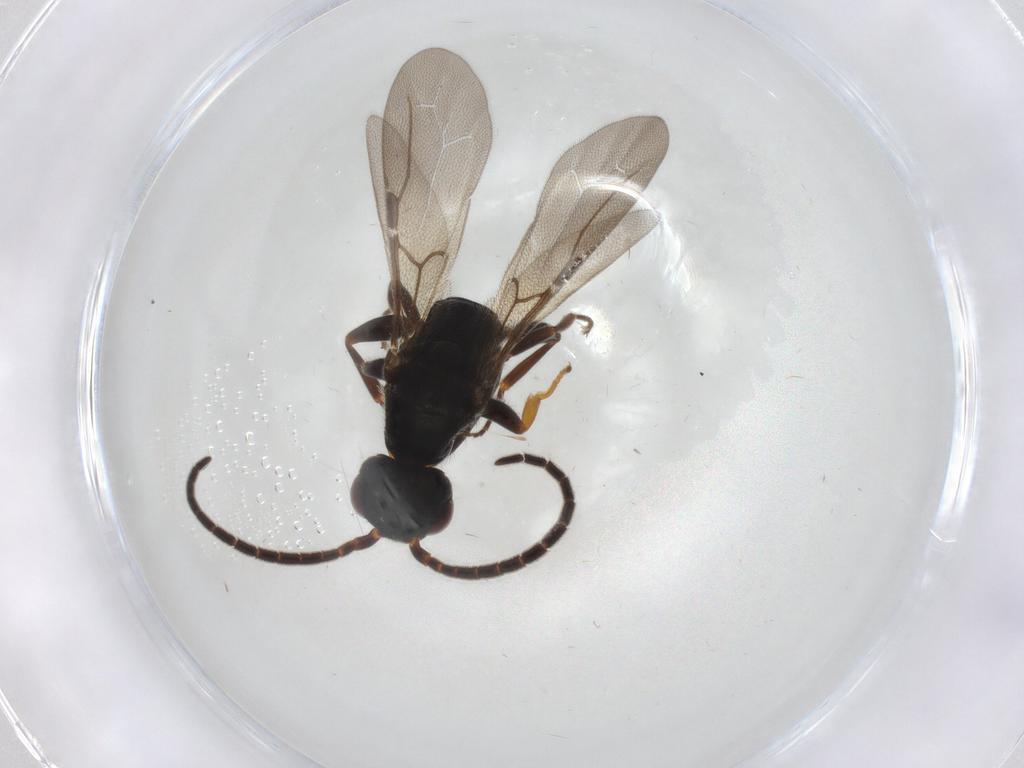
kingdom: Animalia
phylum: Arthropoda
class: Insecta
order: Hymenoptera
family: Bethylidae
